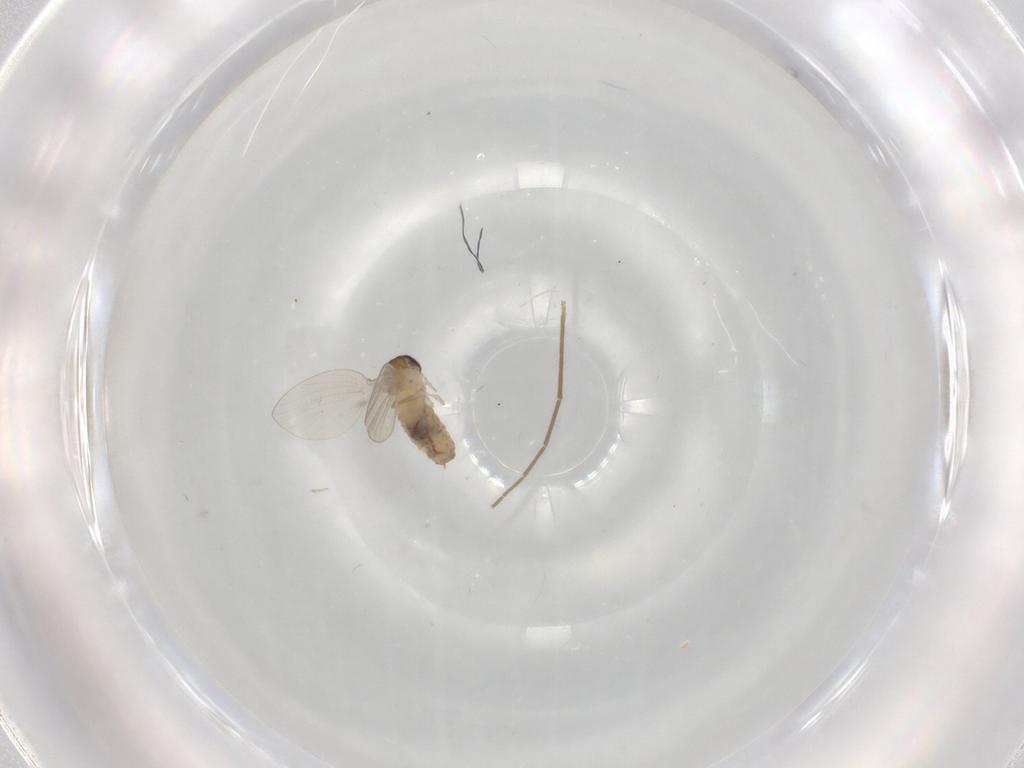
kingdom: Animalia
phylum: Arthropoda
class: Insecta
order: Diptera
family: Psychodidae
